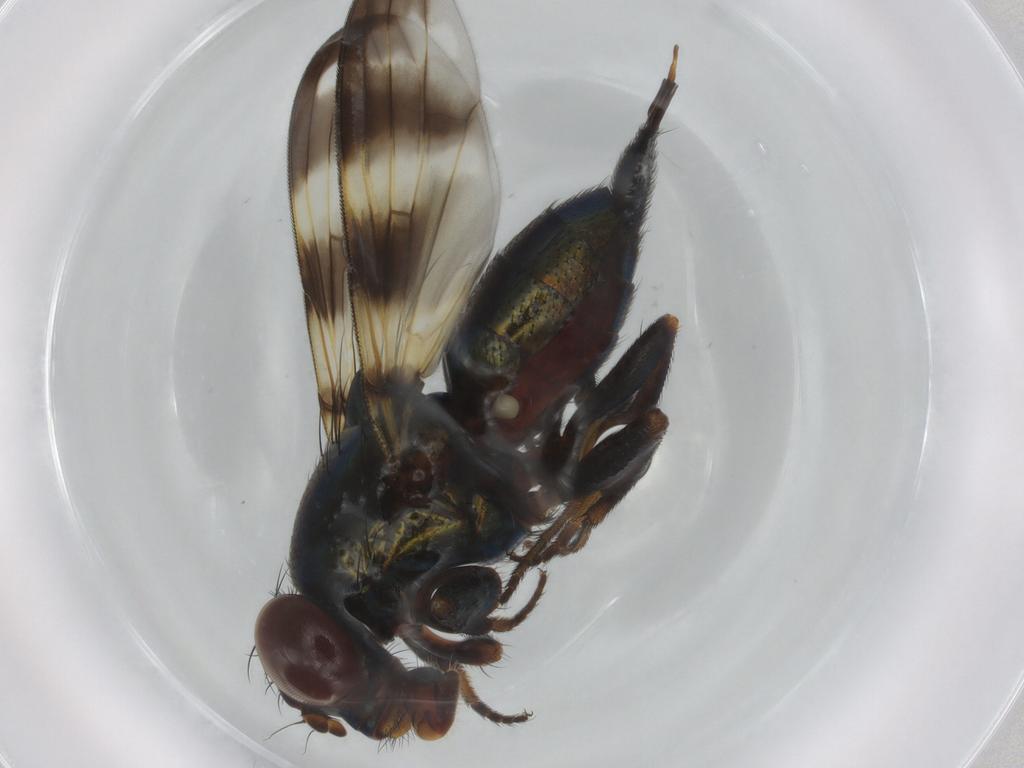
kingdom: Animalia
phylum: Arthropoda
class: Insecta
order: Diptera
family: Ulidiidae
